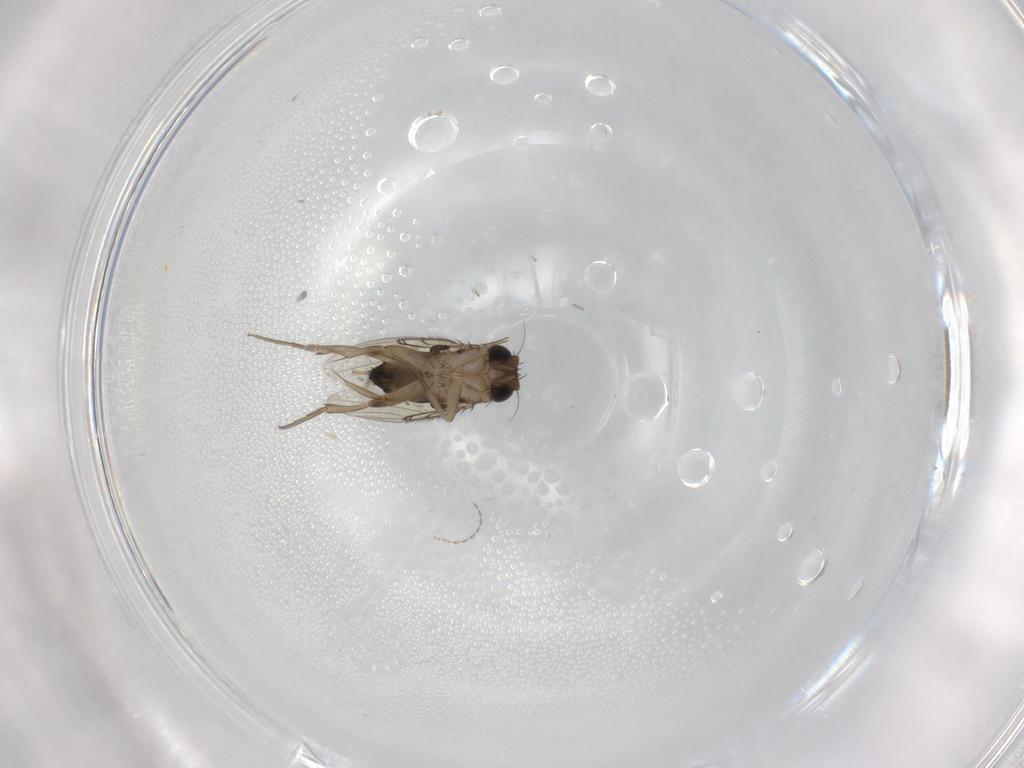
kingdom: Animalia
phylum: Arthropoda
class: Insecta
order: Diptera
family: Phoridae
